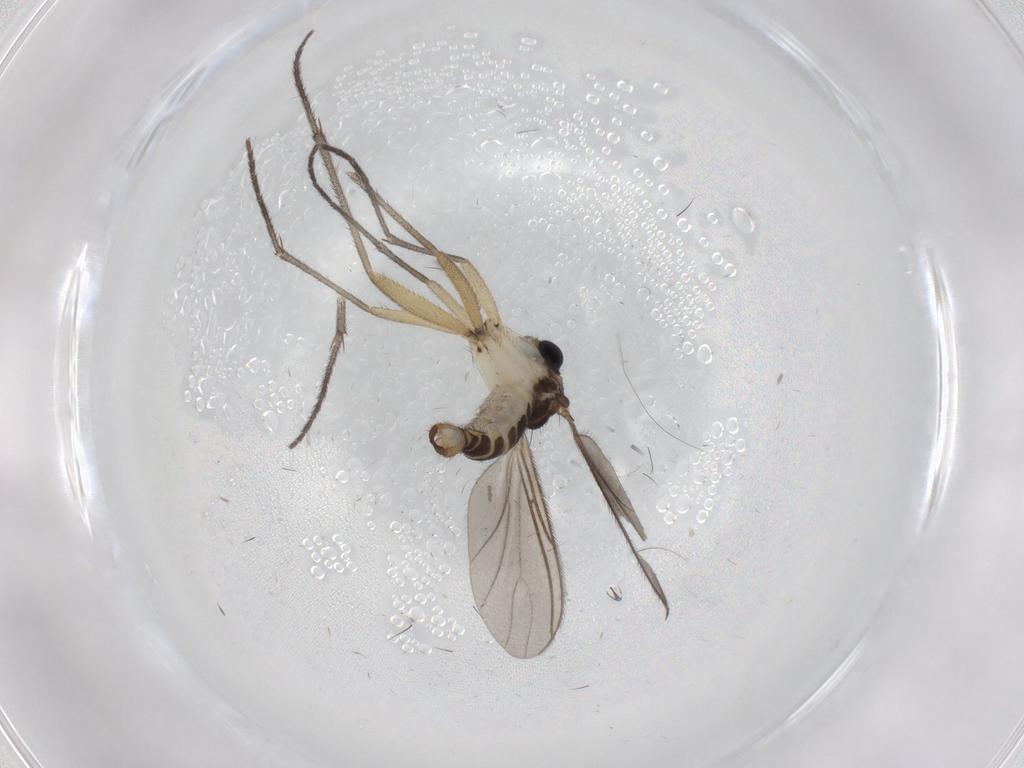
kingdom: Animalia
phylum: Arthropoda
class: Insecta
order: Diptera
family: Sciaridae
